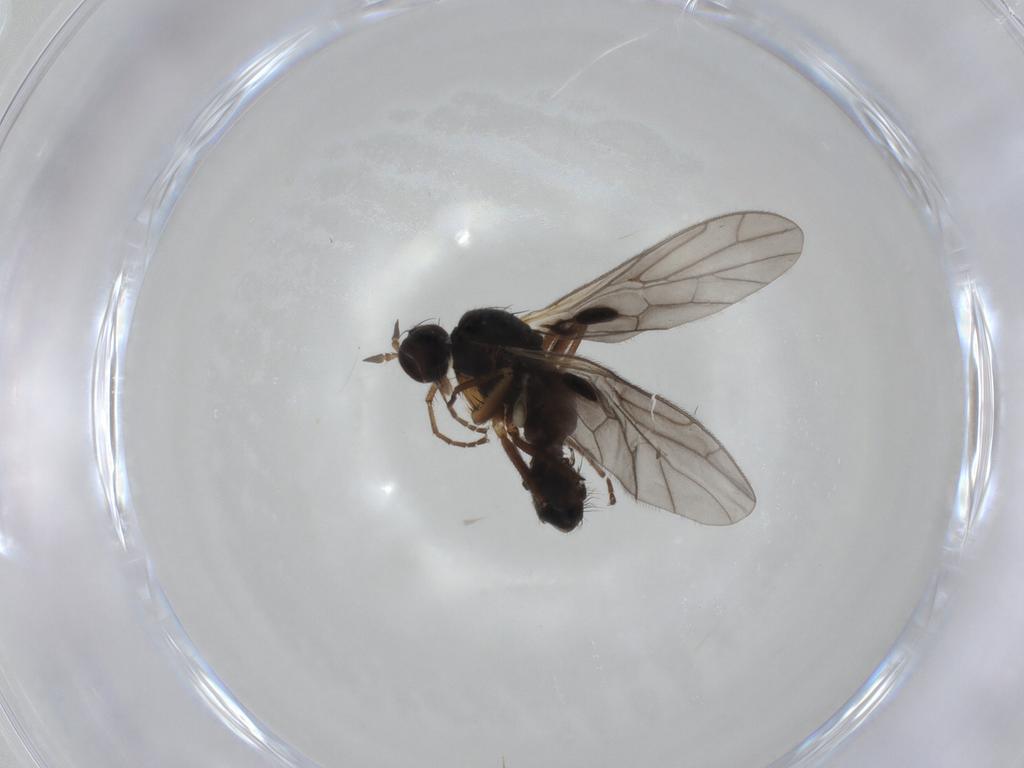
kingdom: Animalia
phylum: Arthropoda
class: Insecta
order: Diptera
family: Empididae
